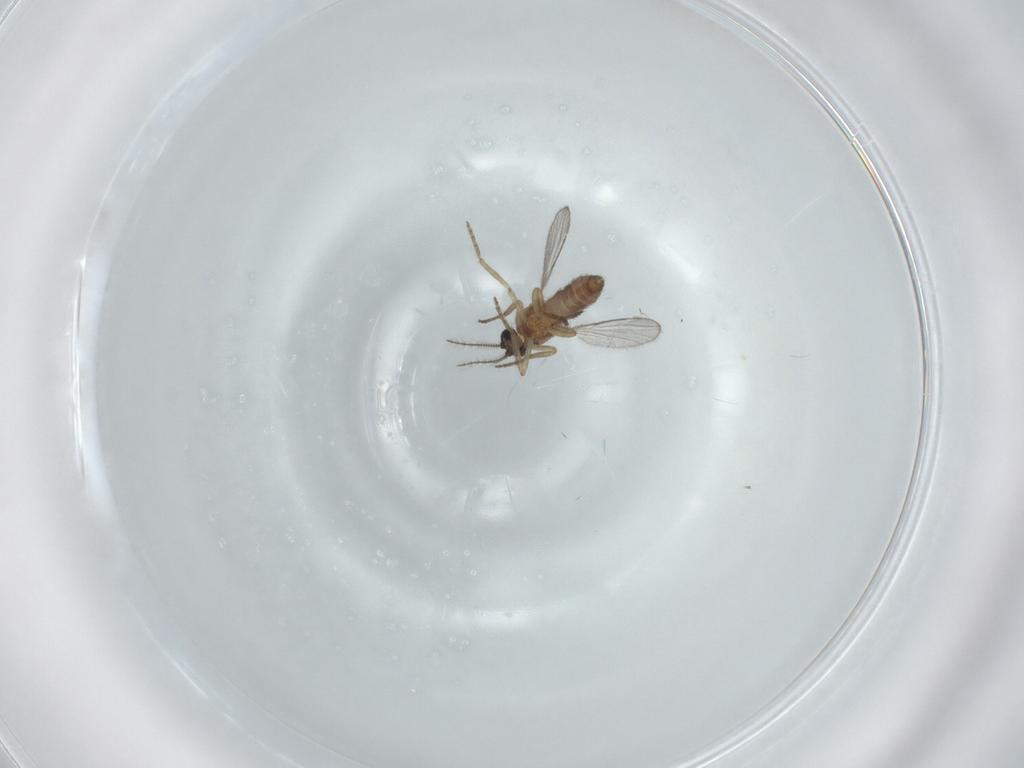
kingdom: Animalia
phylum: Arthropoda
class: Insecta
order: Diptera
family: Ceratopogonidae
